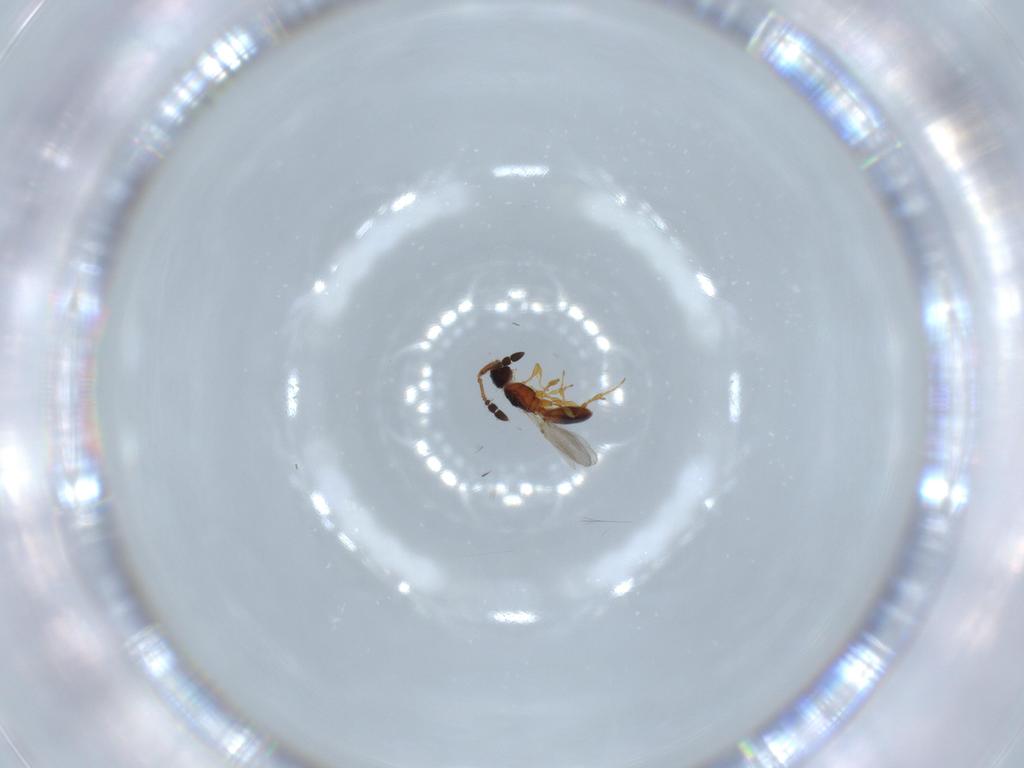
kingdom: Animalia
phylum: Arthropoda
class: Insecta
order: Hymenoptera
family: Diapriidae
